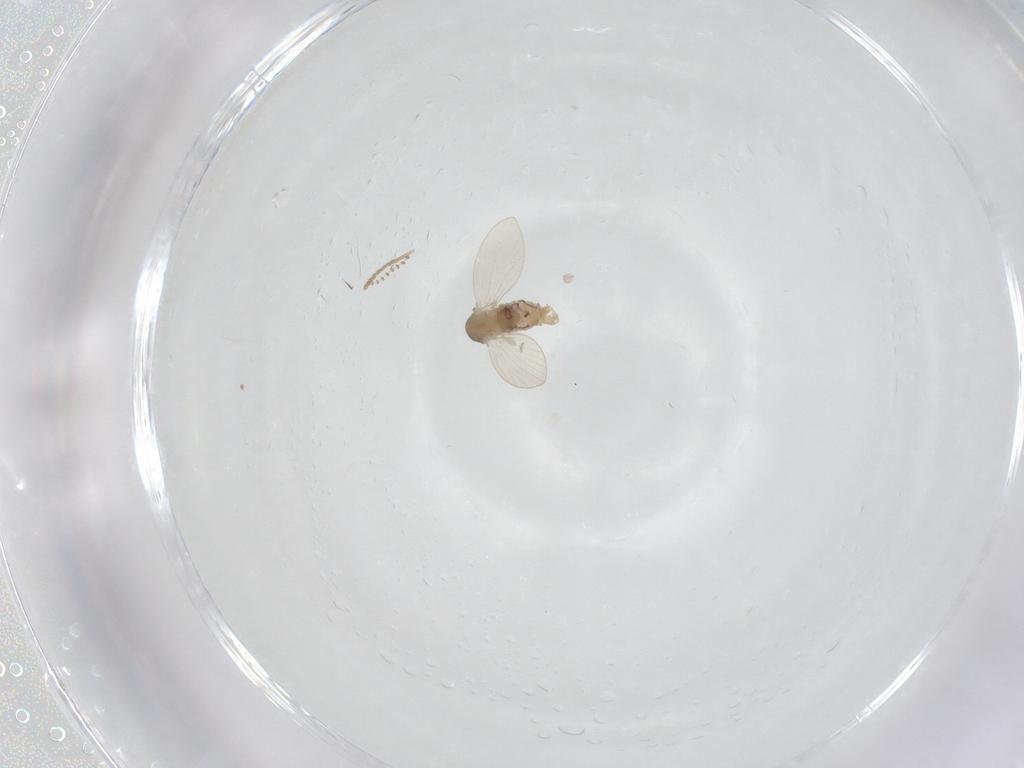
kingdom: Animalia
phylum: Arthropoda
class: Insecta
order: Diptera
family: Psychodidae
